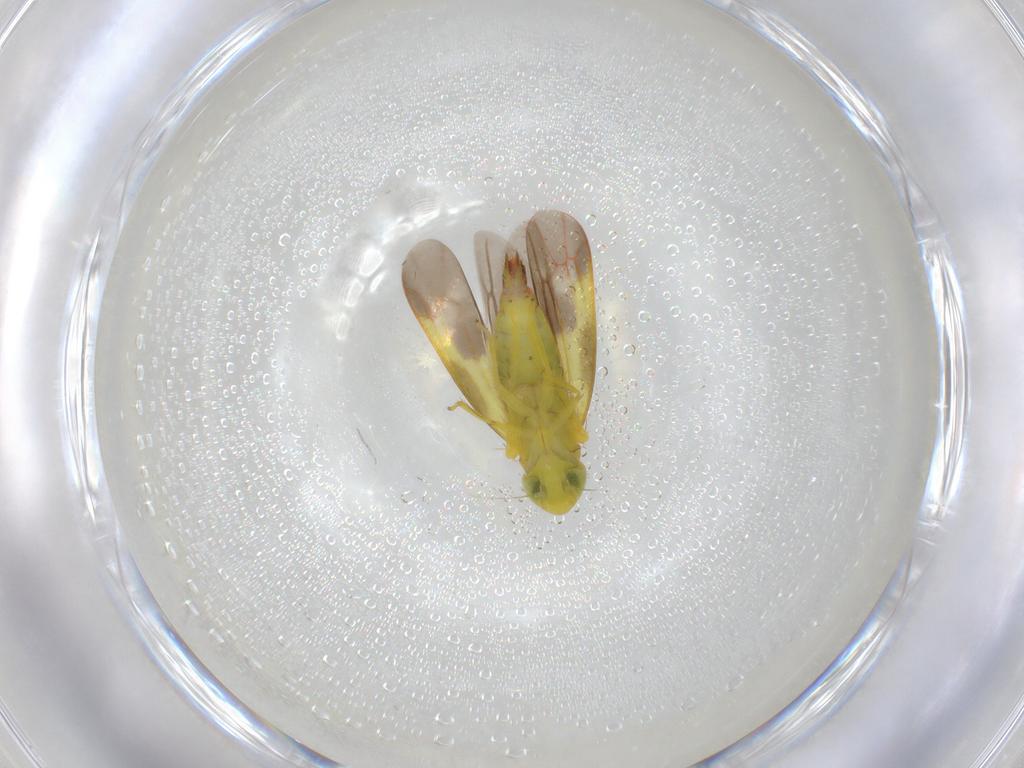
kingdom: Animalia
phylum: Arthropoda
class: Insecta
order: Hemiptera
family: Cicadellidae
